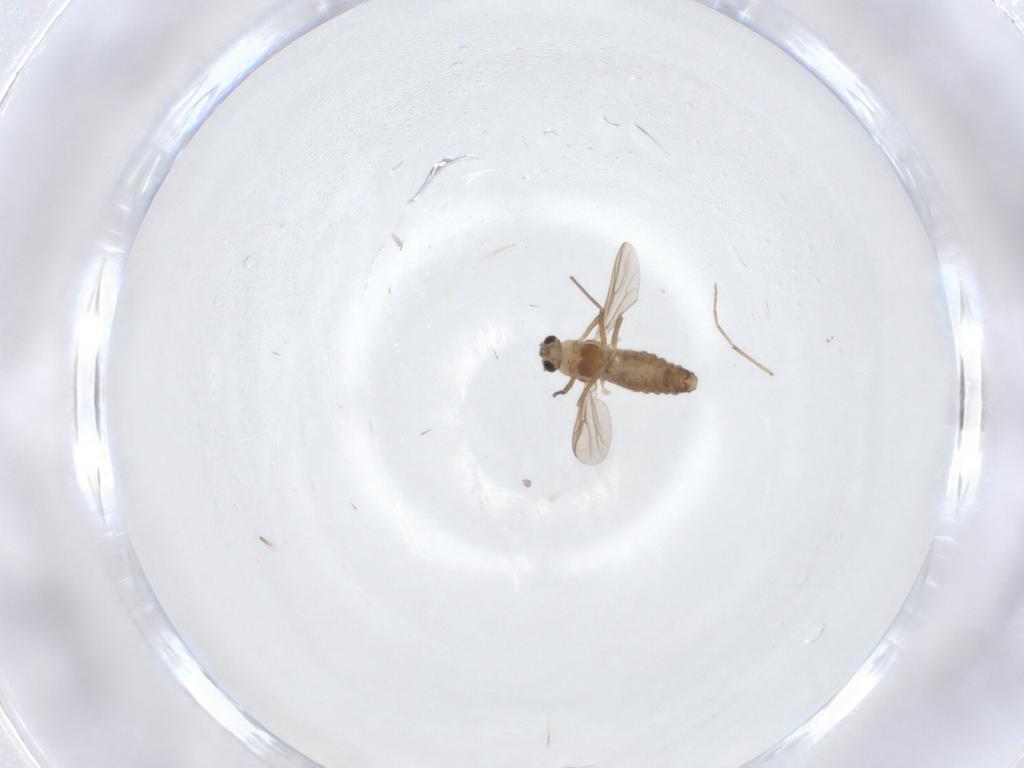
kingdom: Animalia
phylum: Arthropoda
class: Insecta
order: Diptera
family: Chironomidae
